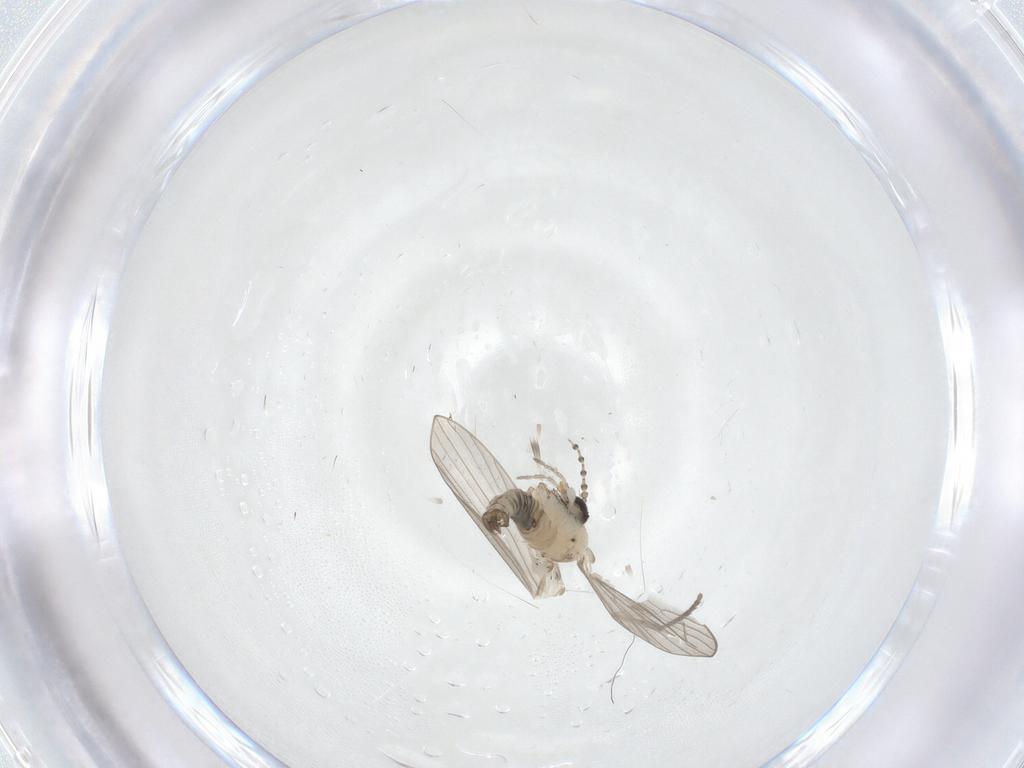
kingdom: Animalia
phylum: Arthropoda
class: Insecta
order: Diptera
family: Psychodidae
